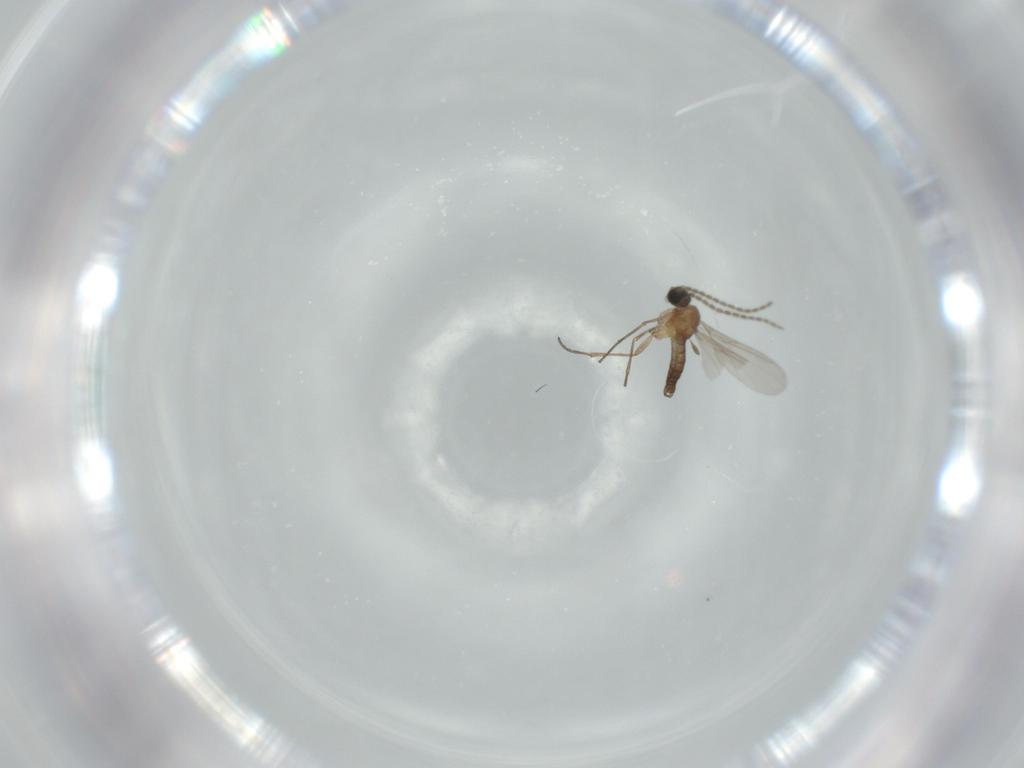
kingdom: Animalia
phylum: Arthropoda
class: Insecta
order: Diptera
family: Sciaridae
